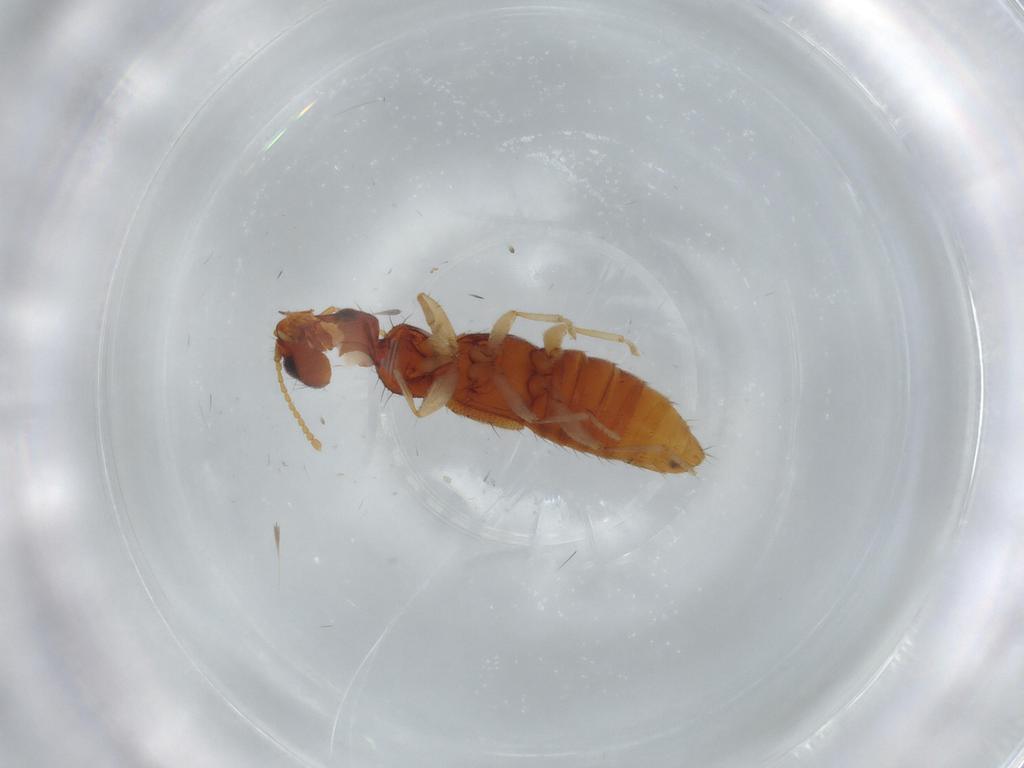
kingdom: Animalia
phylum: Arthropoda
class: Insecta
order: Coleoptera
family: Staphylinidae
